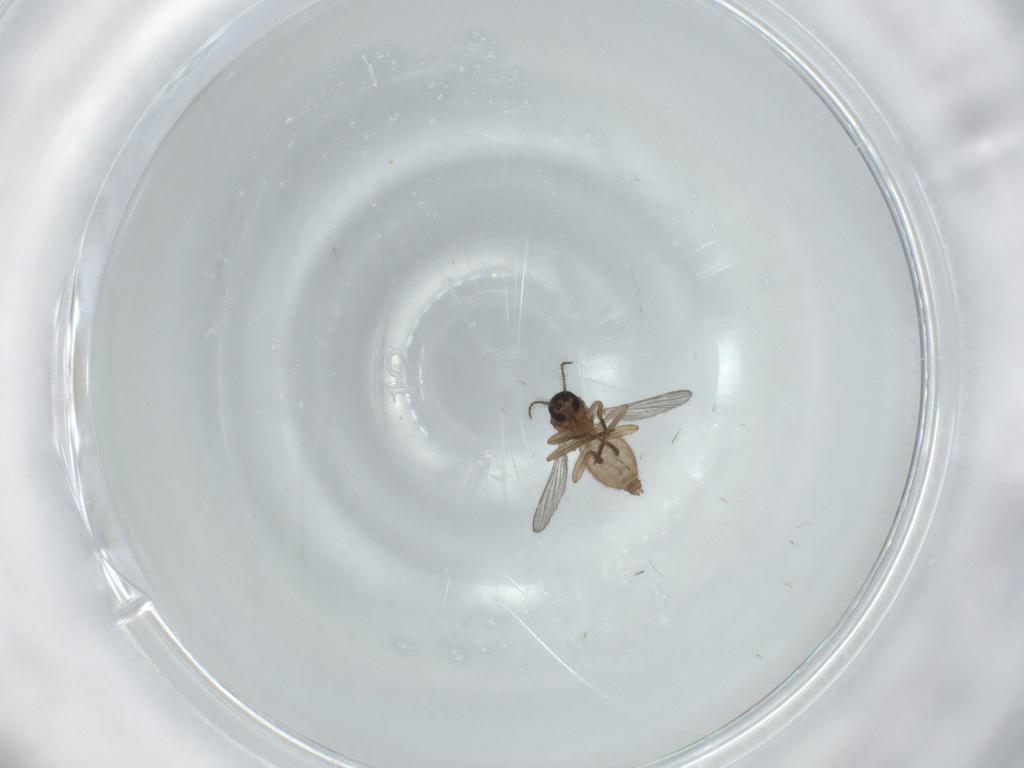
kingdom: Animalia
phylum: Arthropoda
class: Insecta
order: Diptera
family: Ceratopogonidae
